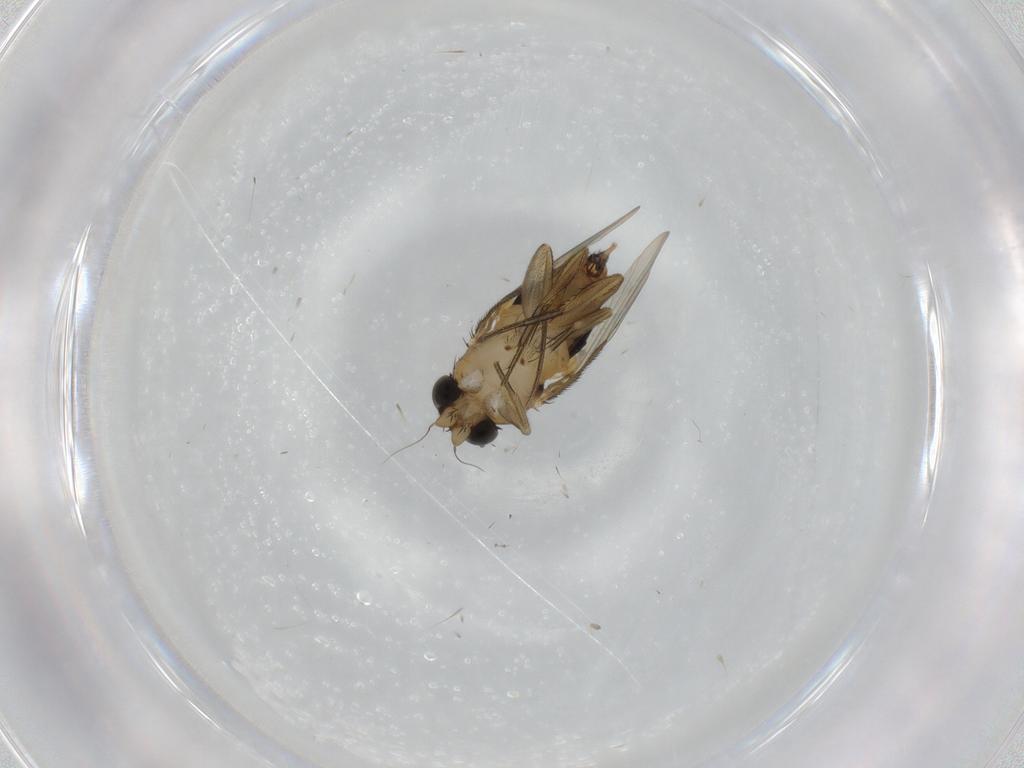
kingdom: Animalia
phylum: Arthropoda
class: Insecta
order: Diptera
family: Phoridae
